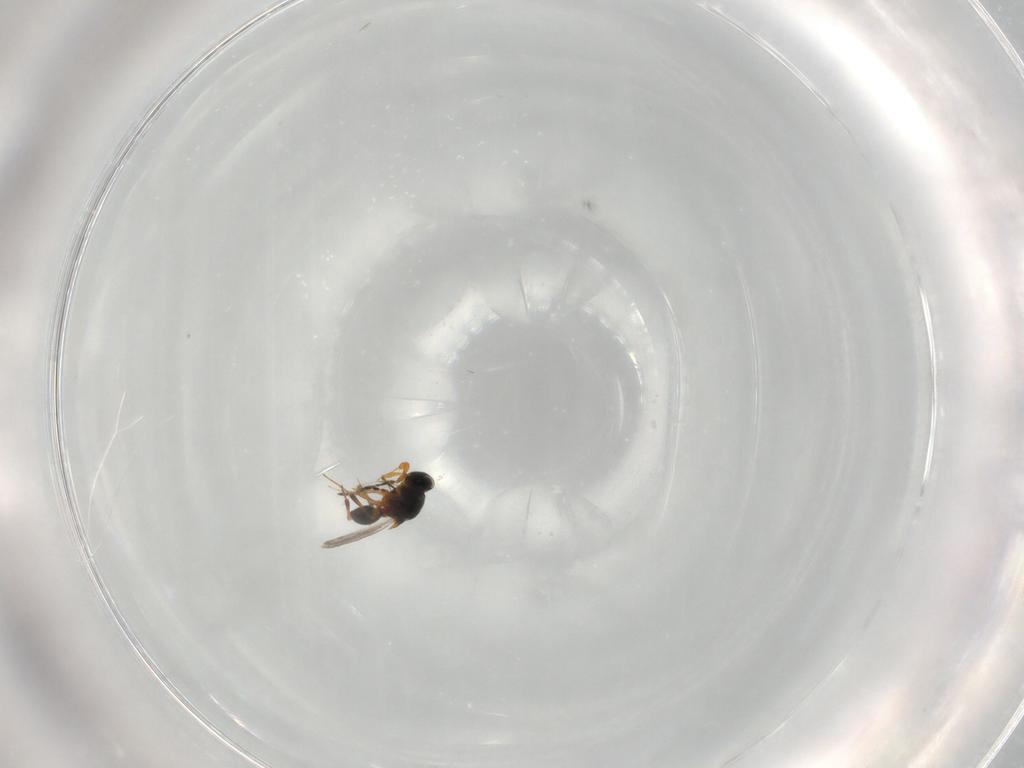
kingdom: Animalia
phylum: Arthropoda
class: Insecta
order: Hymenoptera
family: Platygastridae
